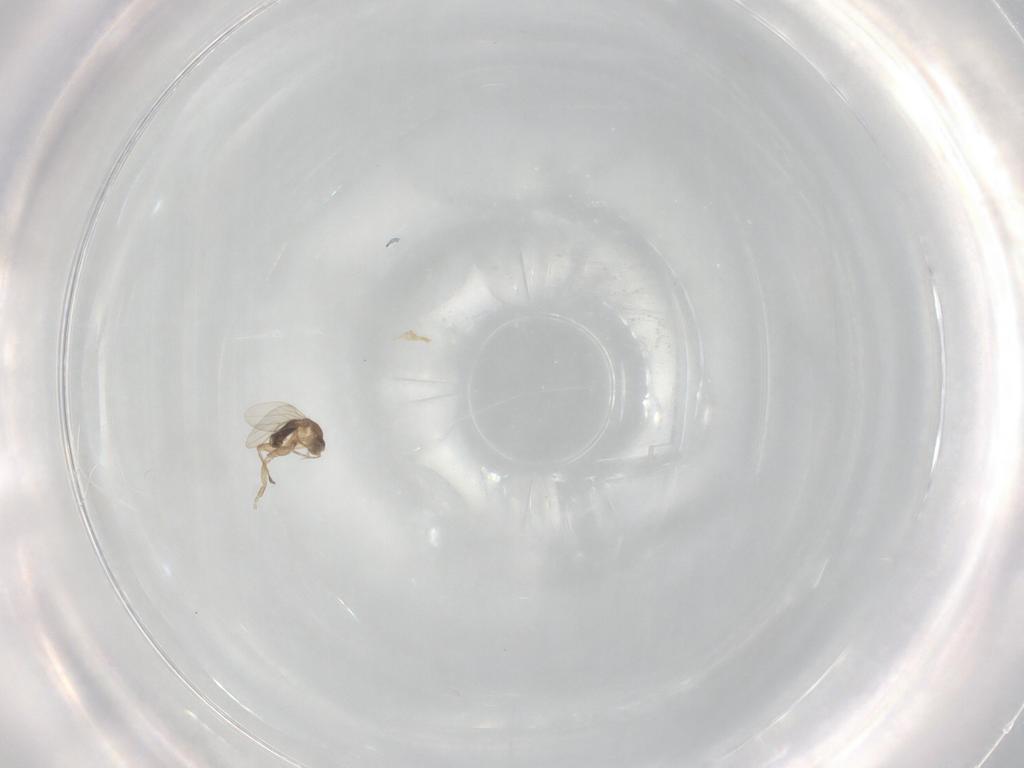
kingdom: Animalia
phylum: Arthropoda
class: Insecta
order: Diptera
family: Phoridae
